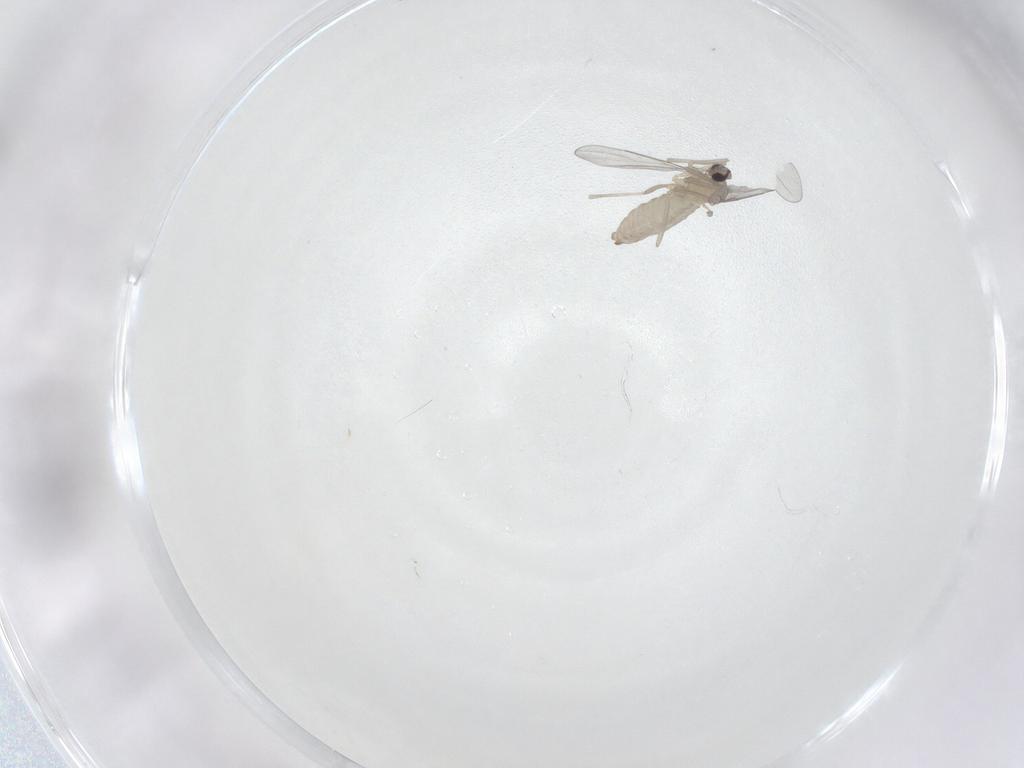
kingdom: Animalia
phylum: Arthropoda
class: Insecta
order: Diptera
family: Cecidomyiidae
